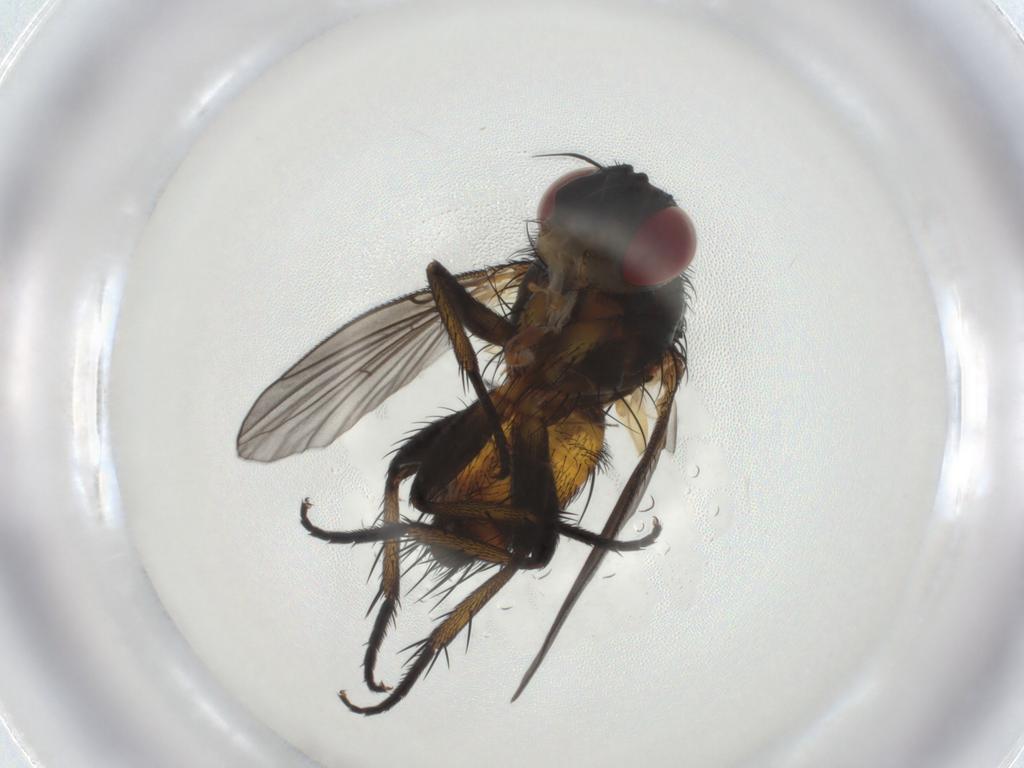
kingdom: Animalia
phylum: Arthropoda
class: Insecta
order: Diptera
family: Tachinidae
